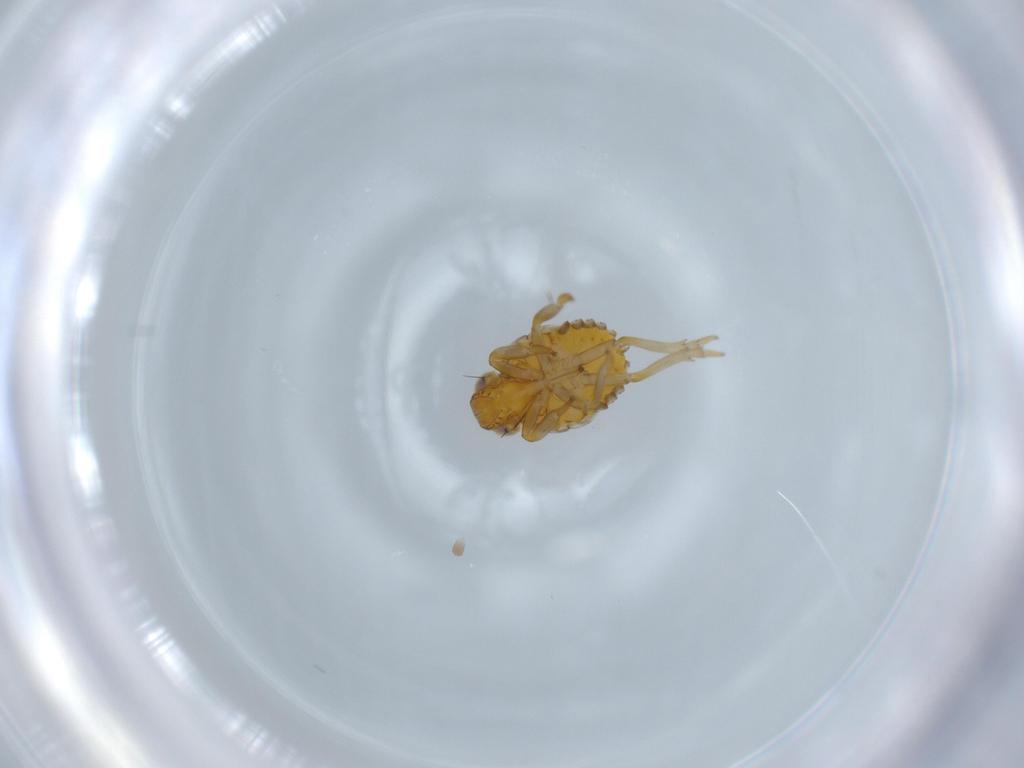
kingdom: Animalia
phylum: Arthropoda
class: Insecta
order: Hemiptera
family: Issidae
